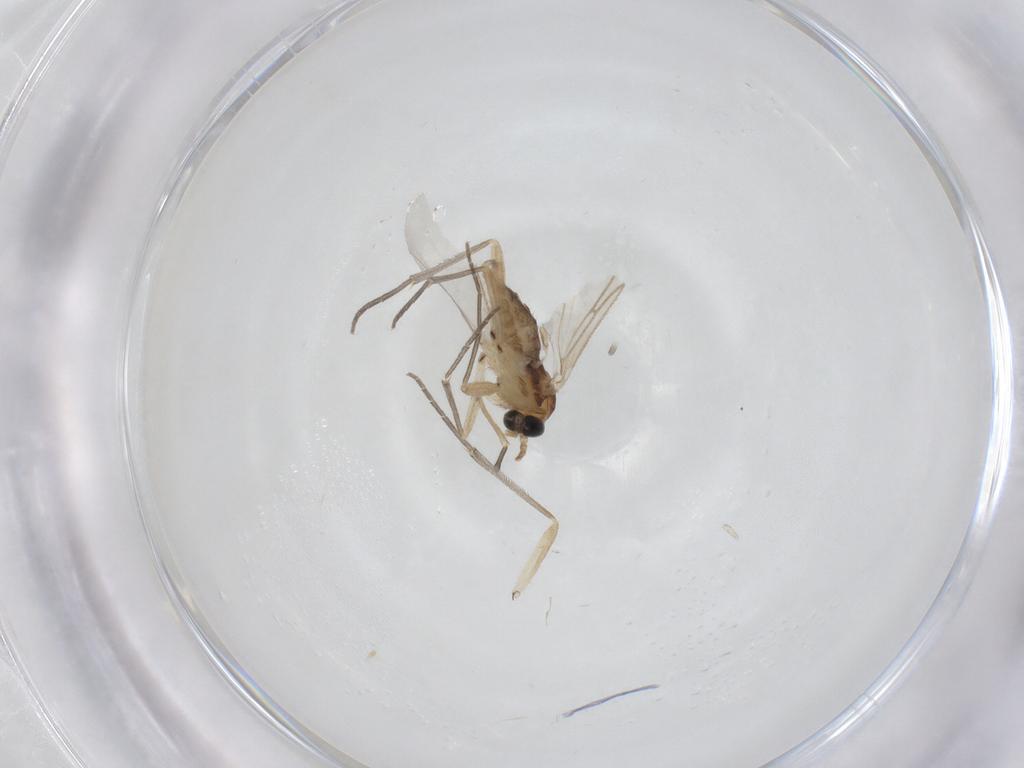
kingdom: Animalia
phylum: Arthropoda
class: Insecta
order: Diptera
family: Sciaridae
